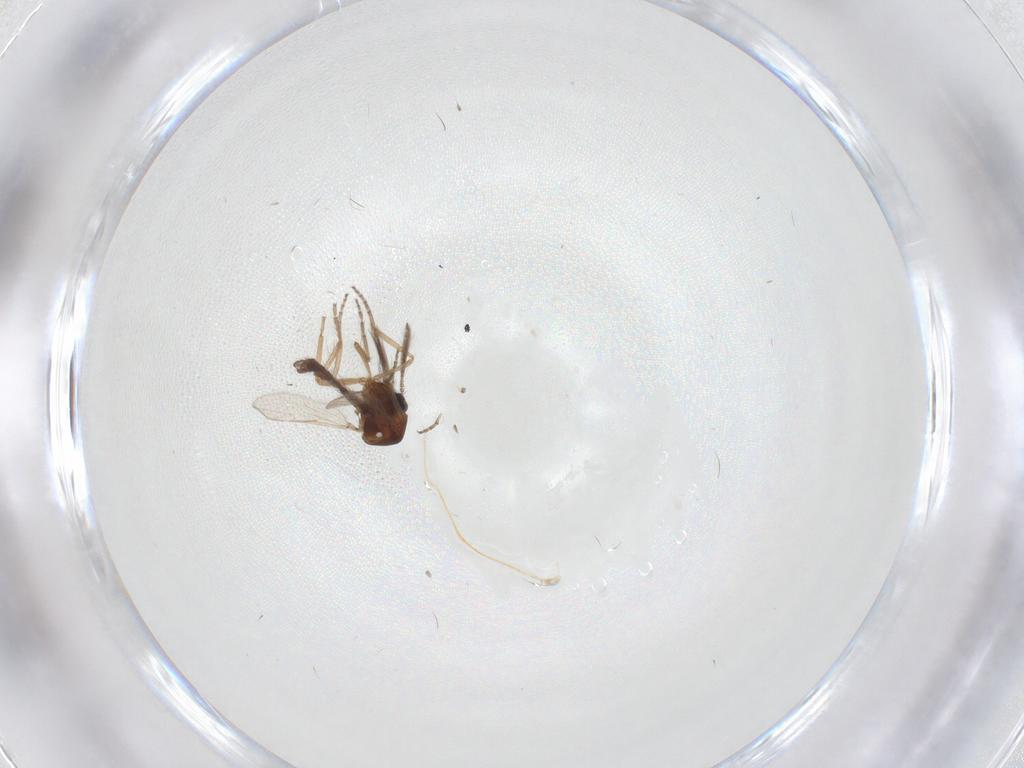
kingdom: Animalia
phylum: Arthropoda
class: Insecta
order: Diptera
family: Ceratopogonidae
